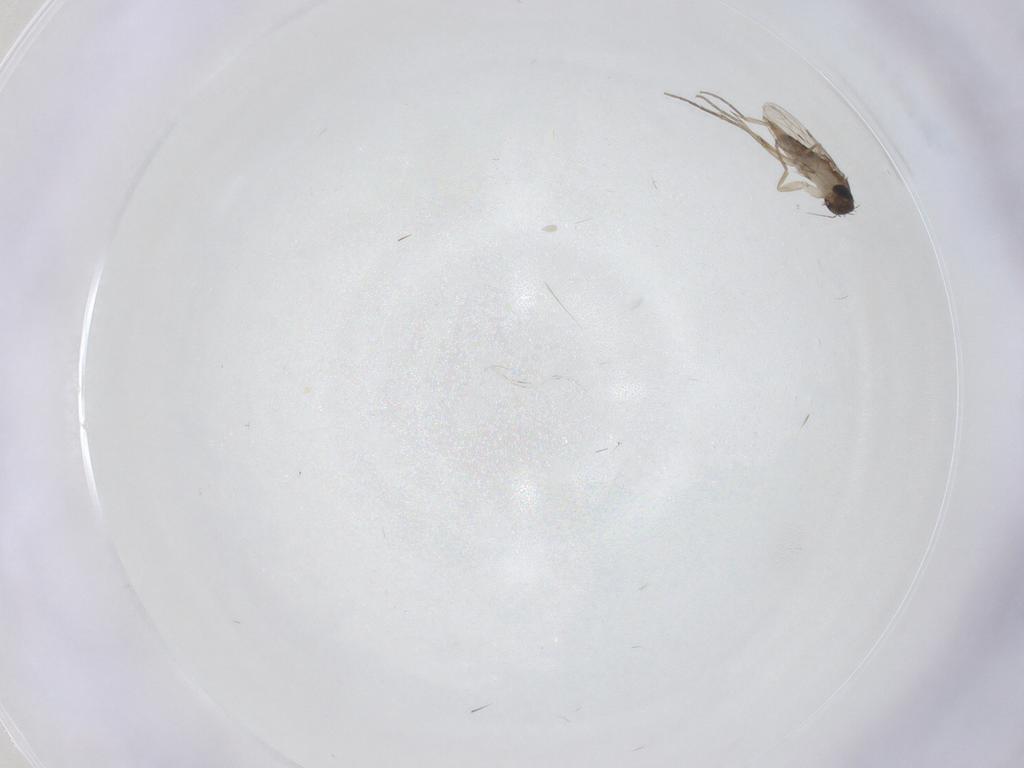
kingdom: Animalia
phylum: Arthropoda
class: Insecta
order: Diptera
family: Phoridae
